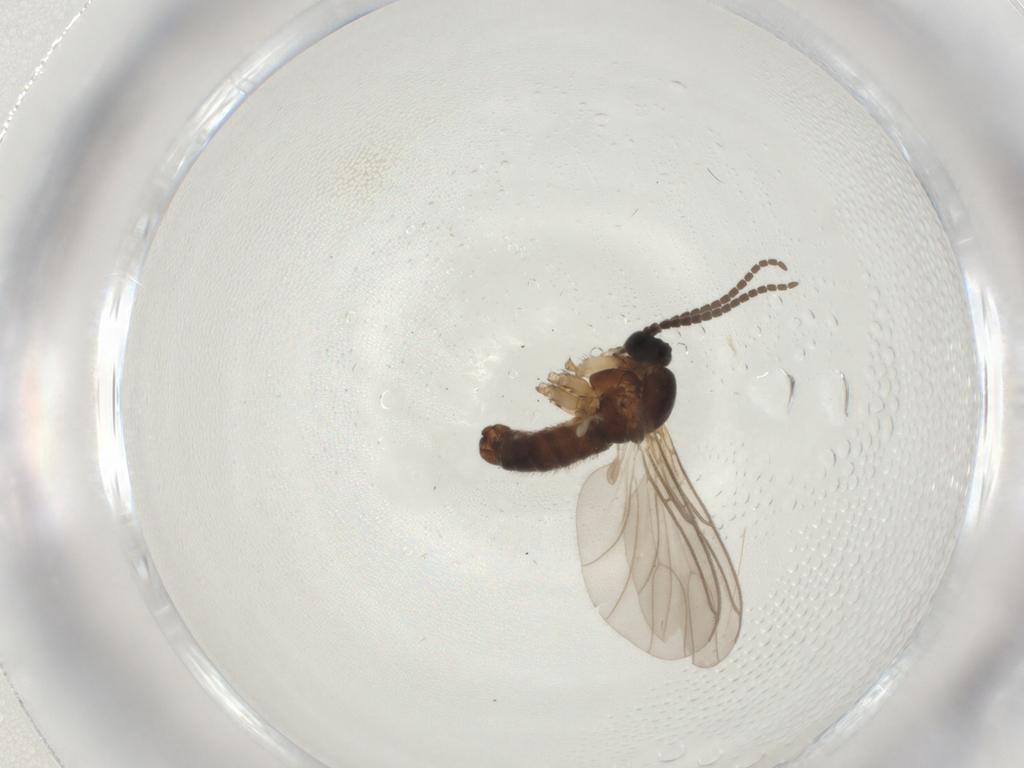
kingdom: Animalia
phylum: Arthropoda
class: Insecta
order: Diptera
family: Sciaridae
